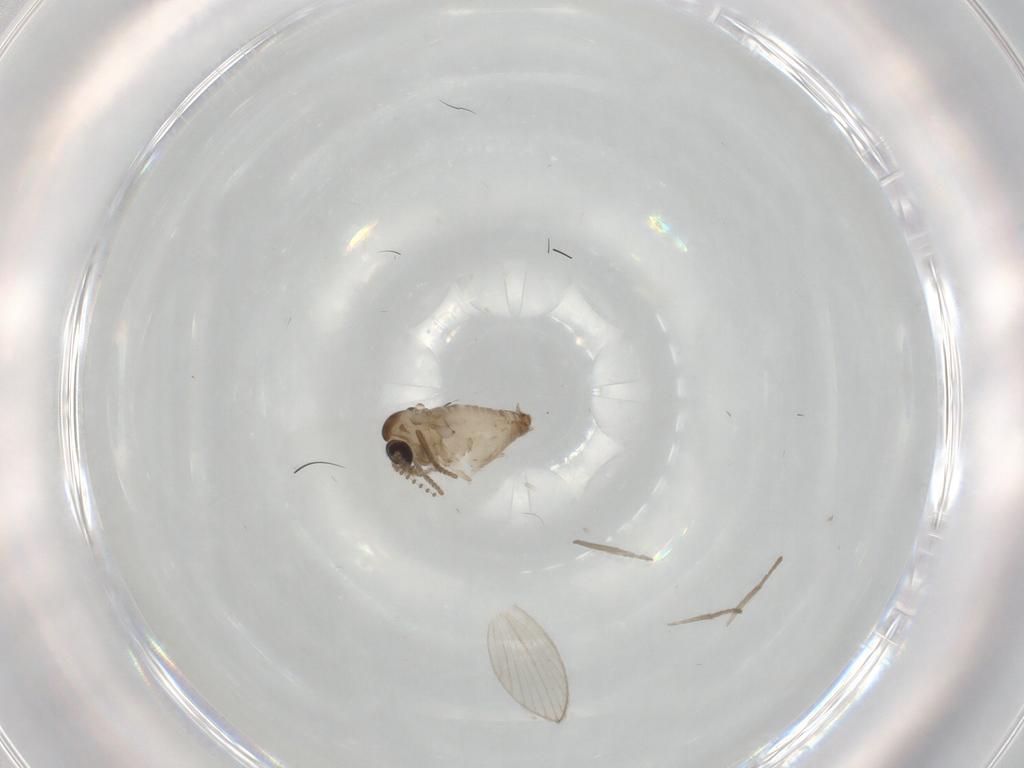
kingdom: Animalia
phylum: Arthropoda
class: Insecta
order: Diptera
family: Psychodidae
